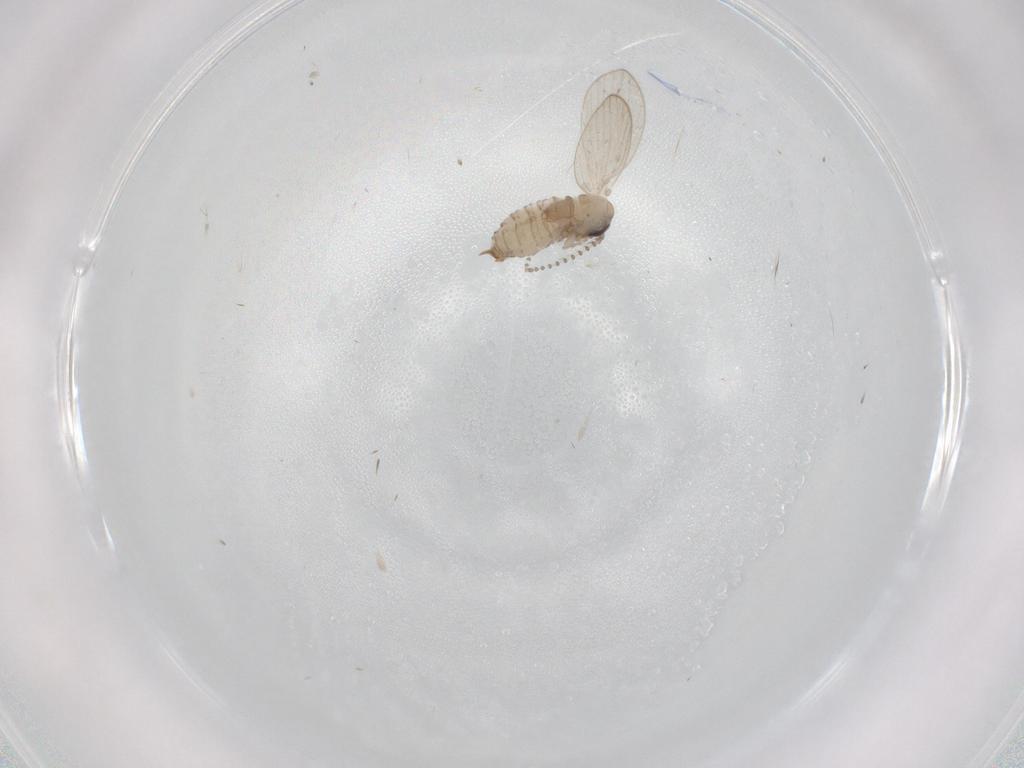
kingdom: Animalia
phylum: Arthropoda
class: Insecta
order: Diptera
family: Psychodidae
